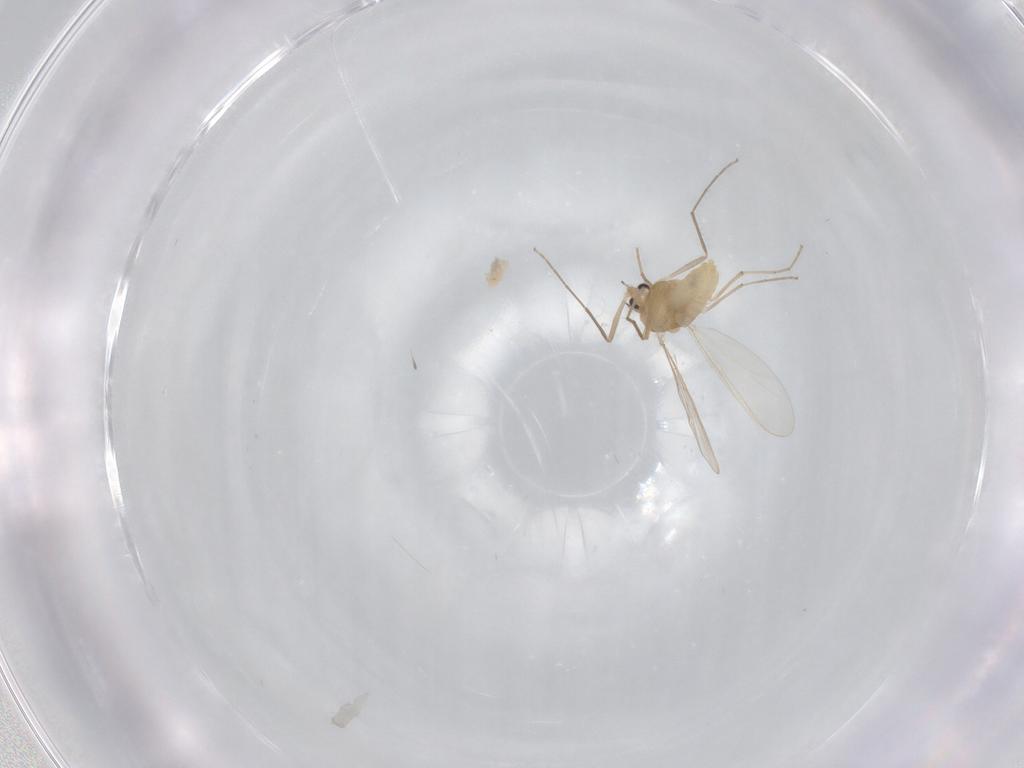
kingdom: Animalia
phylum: Arthropoda
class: Insecta
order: Diptera
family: Chironomidae
